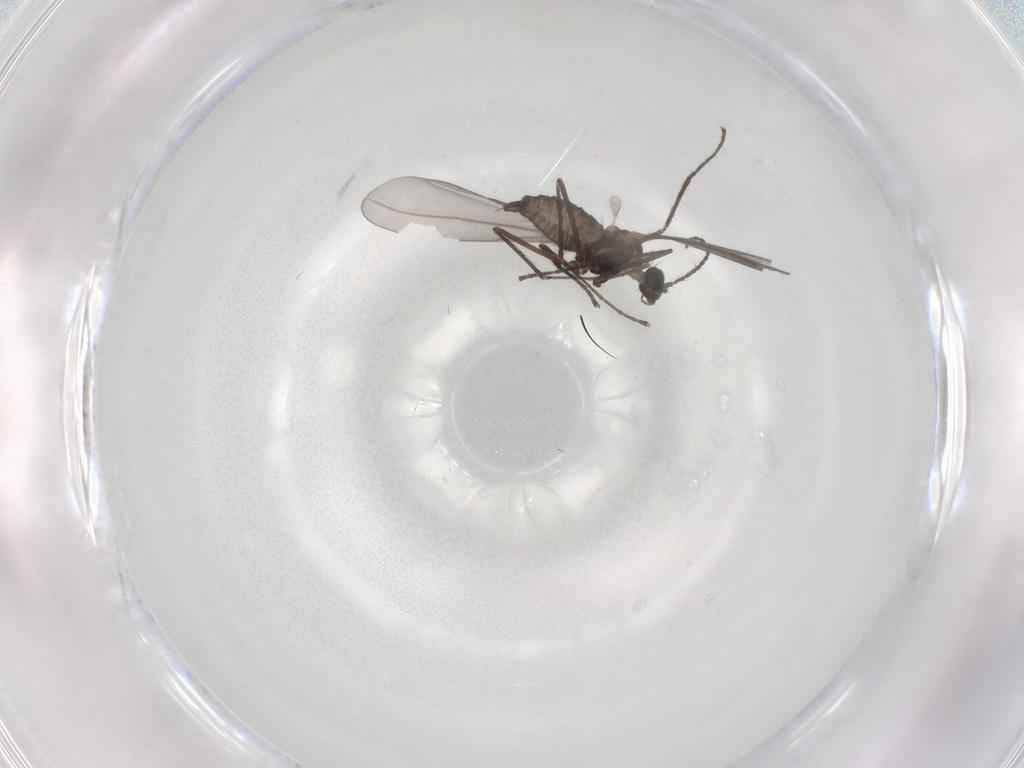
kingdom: Animalia
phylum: Arthropoda
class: Insecta
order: Diptera
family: Cecidomyiidae
